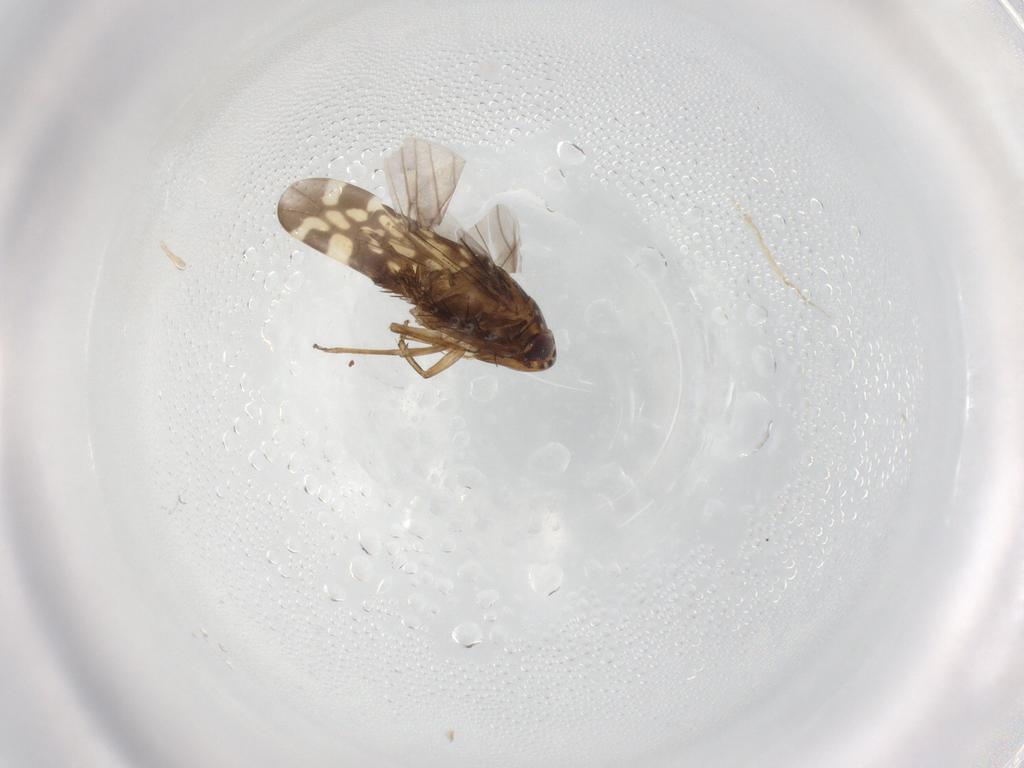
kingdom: Animalia
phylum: Arthropoda
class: Insecta
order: Hemiptera
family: Cicadellidae
